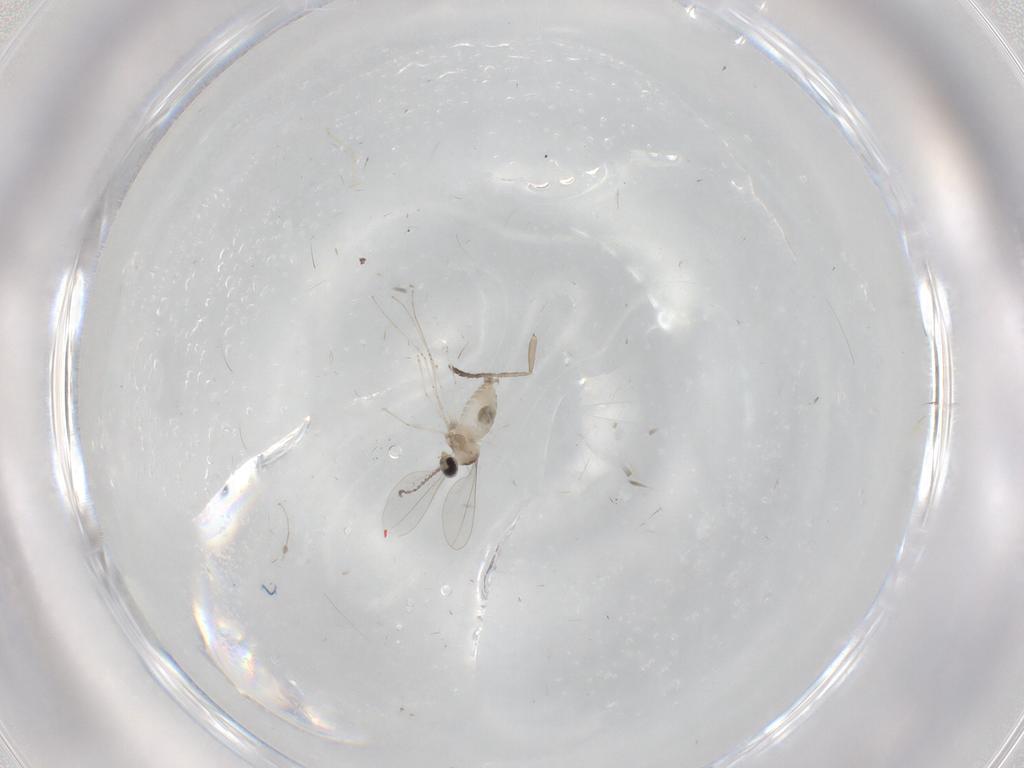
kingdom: Animalia
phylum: Arthropoda
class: Insecta
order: Diptera
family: Cecidomyiidae
